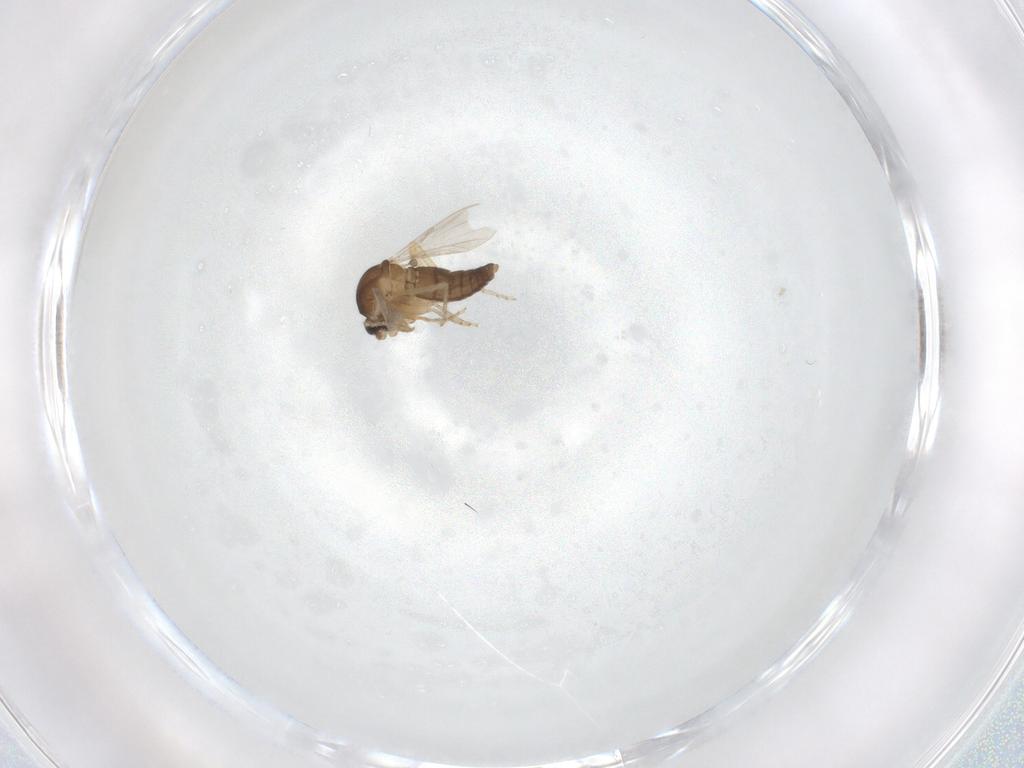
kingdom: Animalia
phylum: Arthropoda
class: Insecta
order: Diptera
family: Ceratopogonidae
